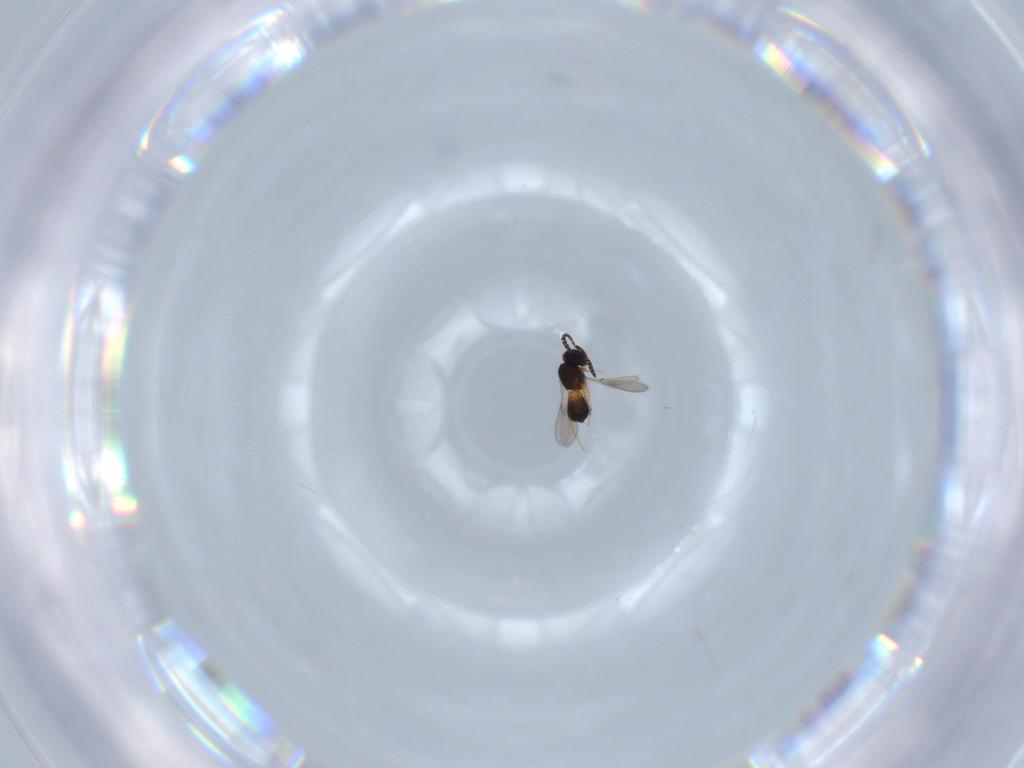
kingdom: Animalia
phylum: Arthropoda
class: Insecta
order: Hymenoptera
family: Scelionidae
